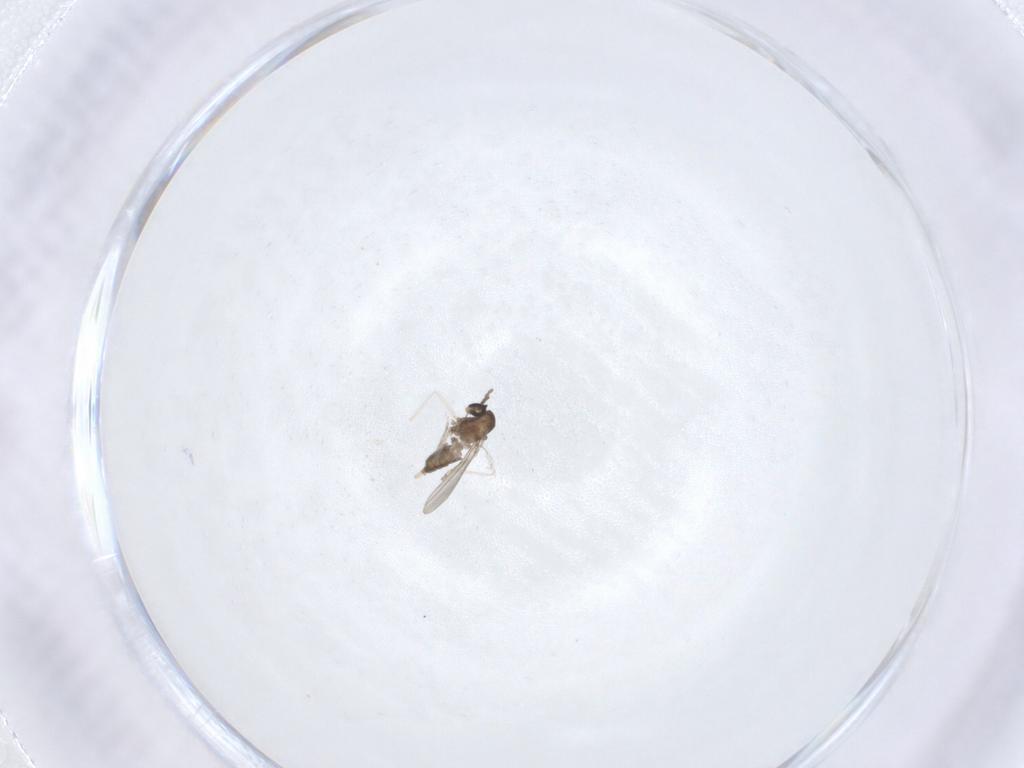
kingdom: Animalia
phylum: Arthropoda
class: Insecta
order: Diptera
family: Cecidomyiidae
